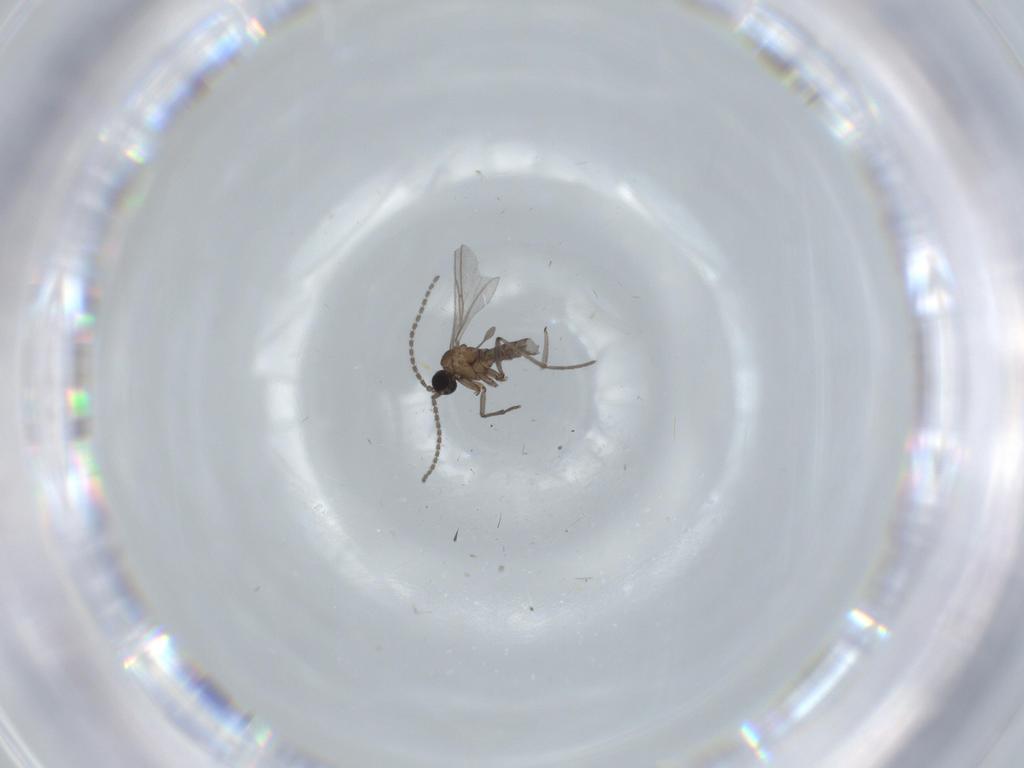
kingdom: Animalia
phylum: Arthropoda
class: Insecta
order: Diptera
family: Sciaridae
